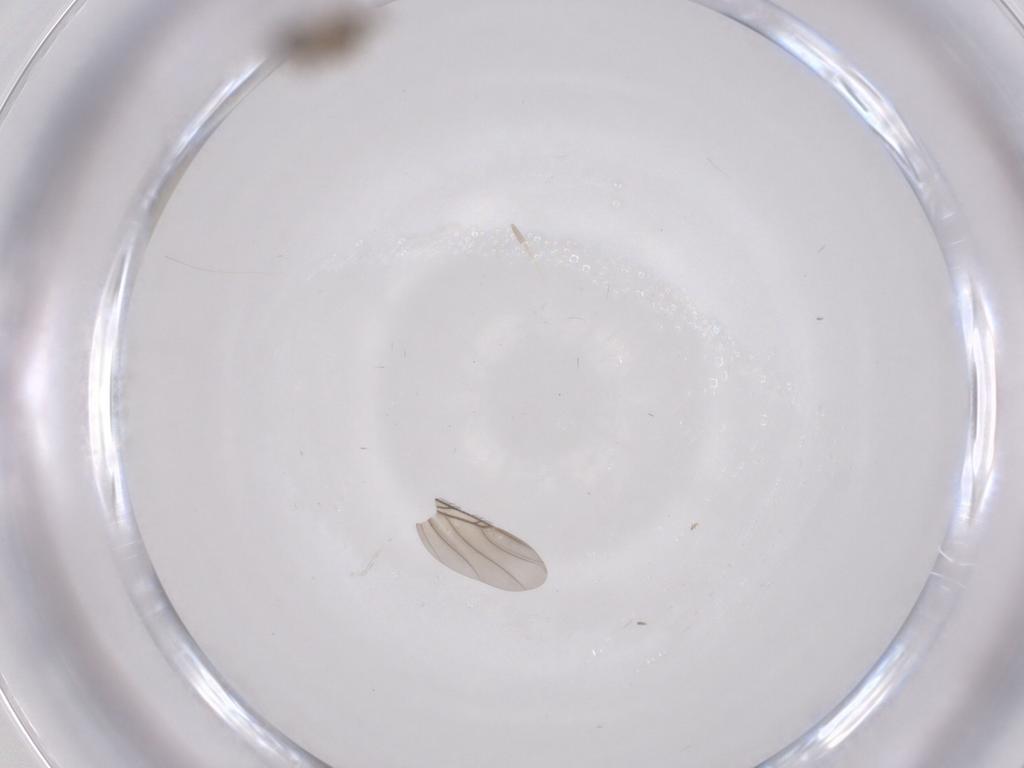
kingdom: Animalia
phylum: Arthropoda
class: Insecta
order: Diptera
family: Phoridae
